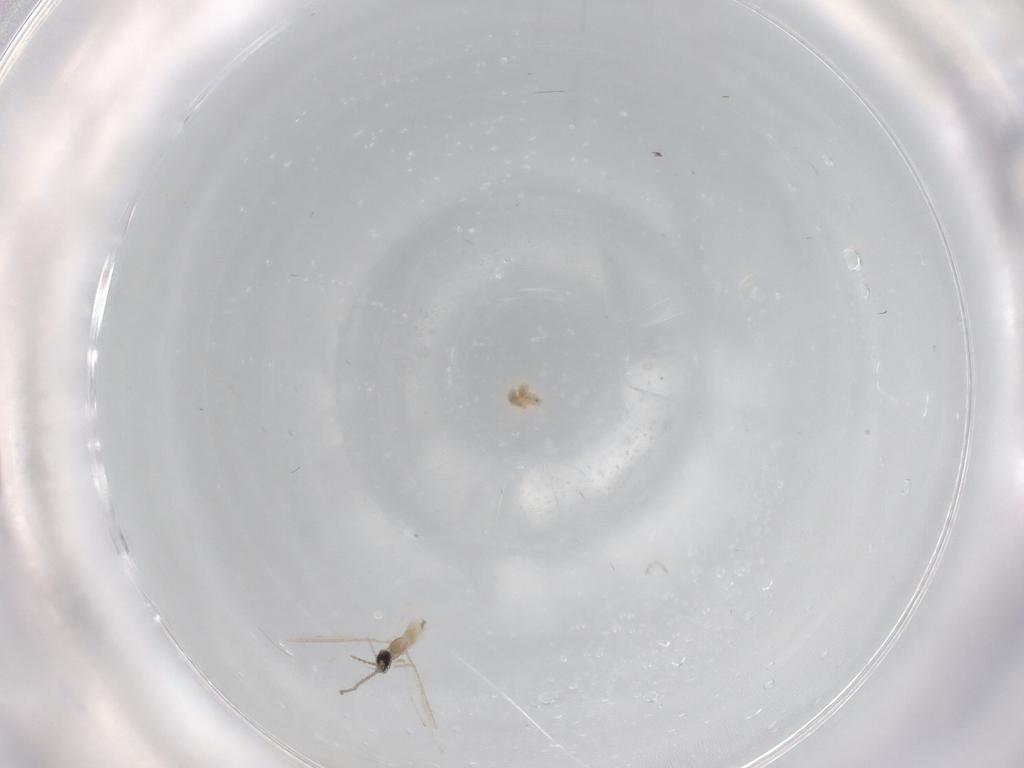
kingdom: Animalia
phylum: Arthropoda
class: Insecta
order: Diptera
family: Cecidomyiidae
